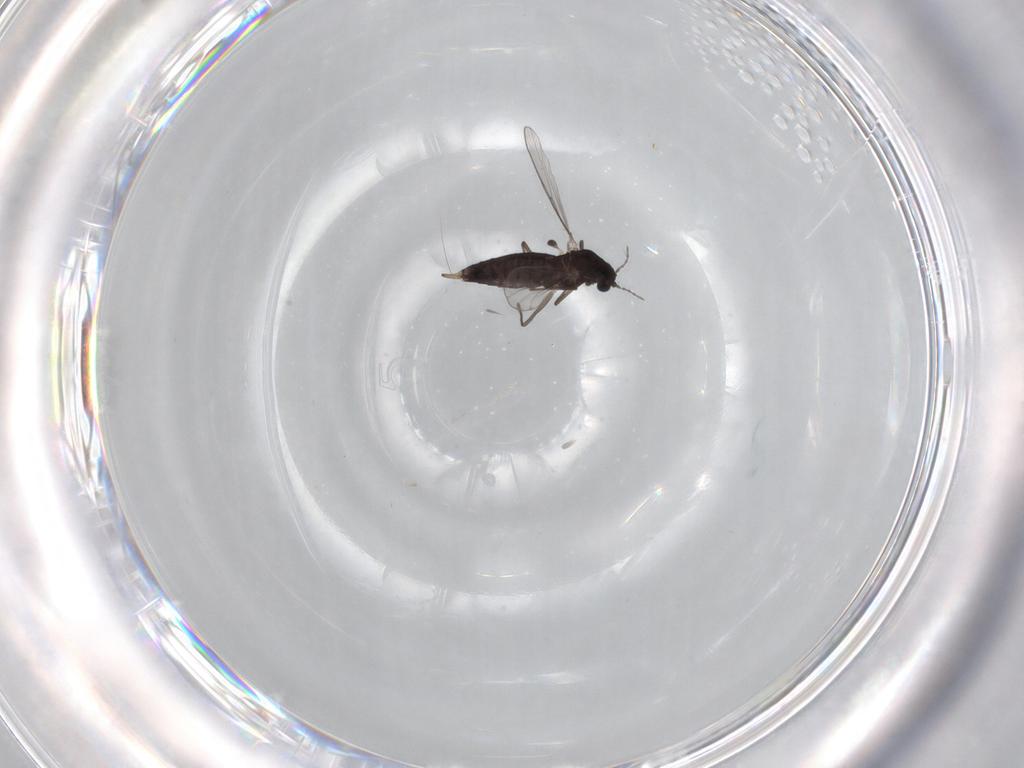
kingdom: Animalia
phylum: Arthropoda
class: Insecta
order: Diptera
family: Chironomidae
